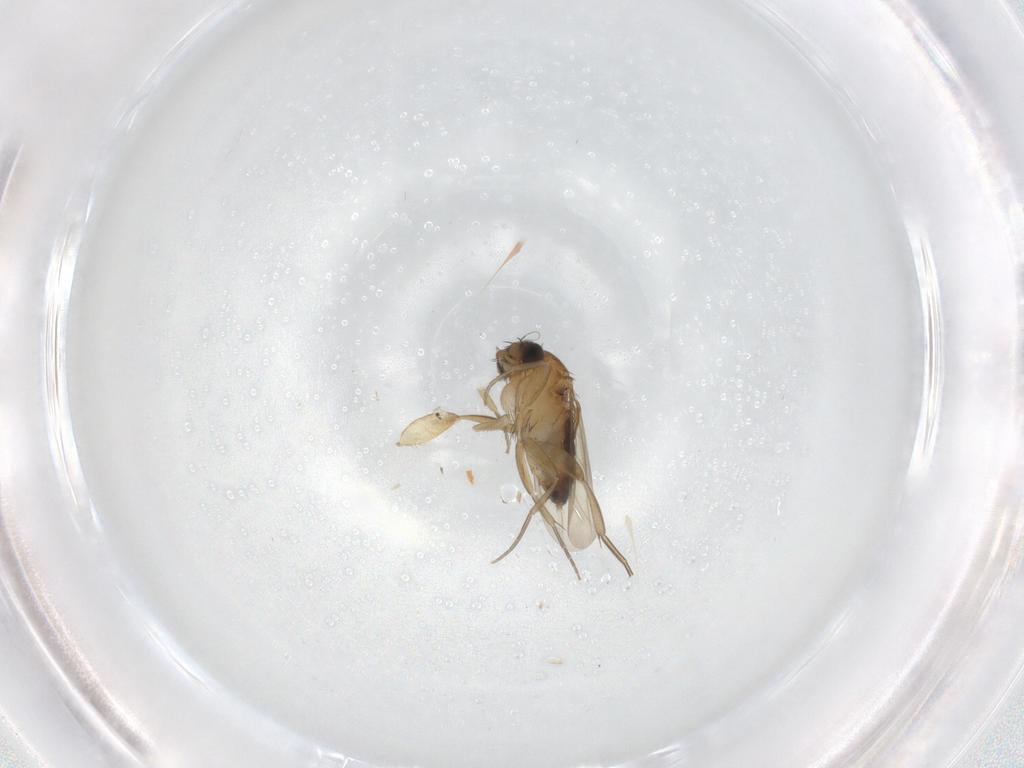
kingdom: Animalia
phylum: Arthropoda
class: Insecta
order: Diptera
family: Phoridae
